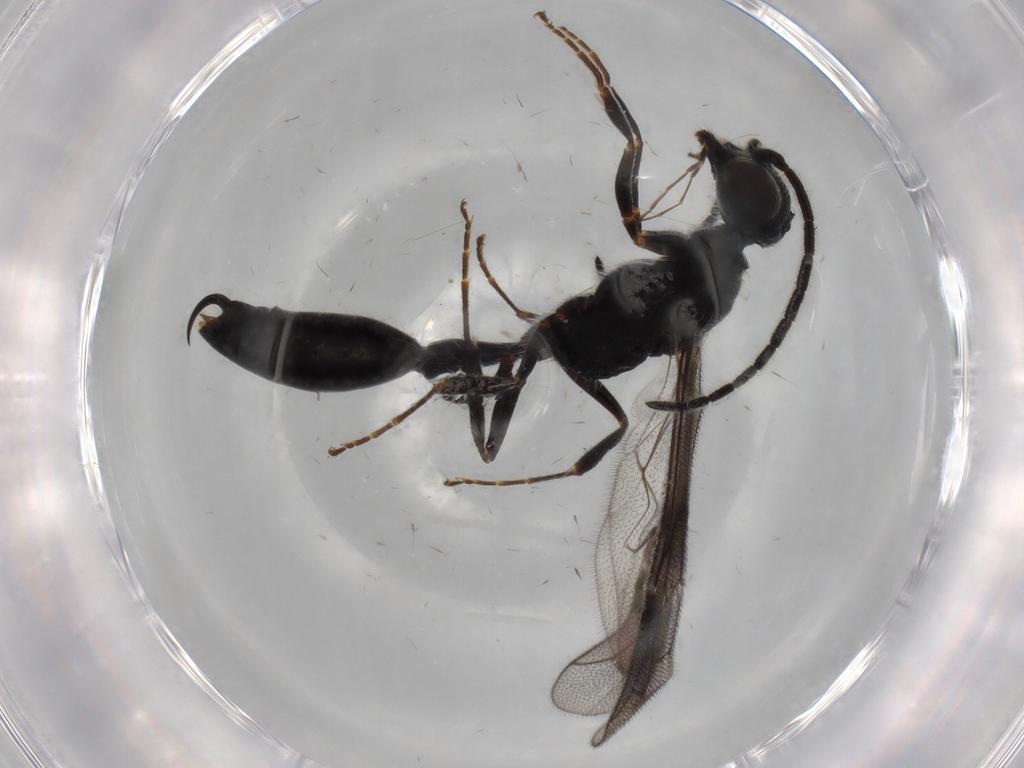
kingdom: Animalia
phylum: Arthropoda
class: Insecta
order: Hymenoptera
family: Thynnidae
